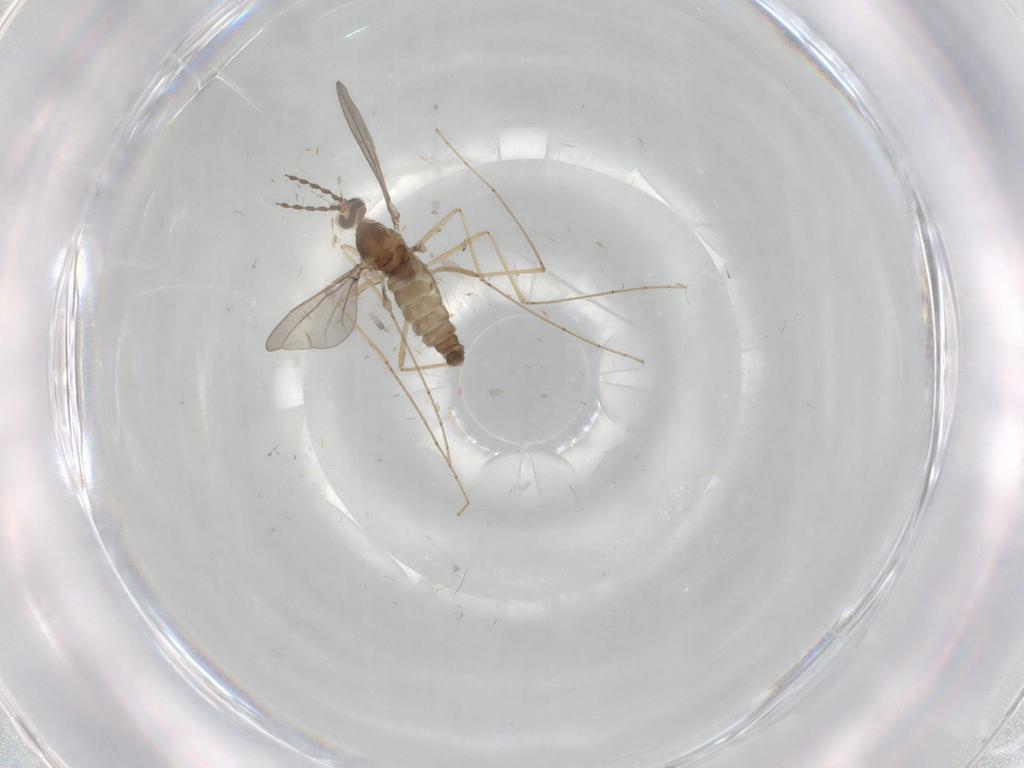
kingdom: Animalia
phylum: Arthropoda
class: Insecta
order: Diptera
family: Cecidomyiidae
